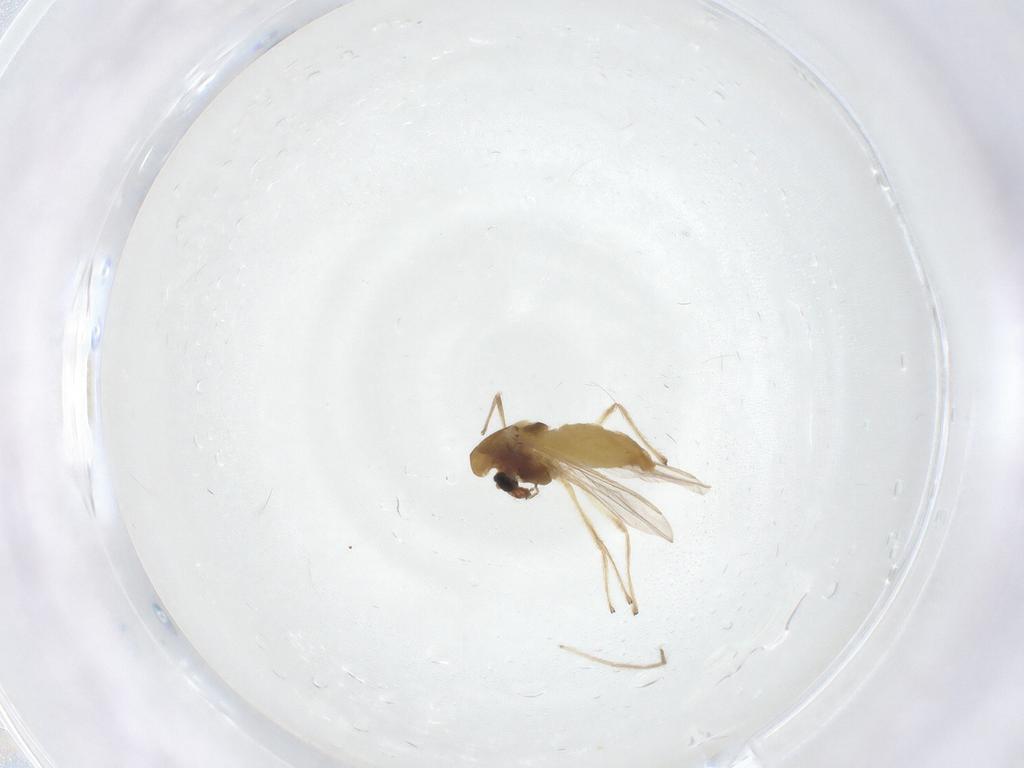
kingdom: Animalia
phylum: Arthropoda
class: Insecta
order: Diptera
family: Chironomidae
